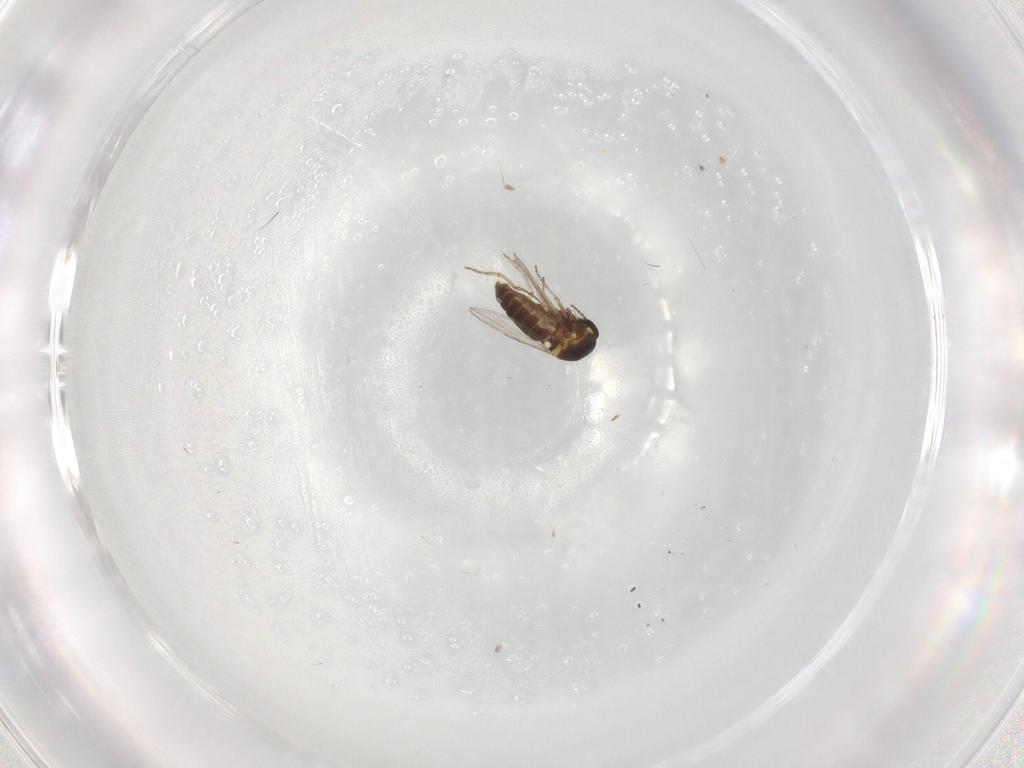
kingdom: Animalia
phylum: Arthropoda
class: Insecta
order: Diptera
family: Ceratopogonidae
